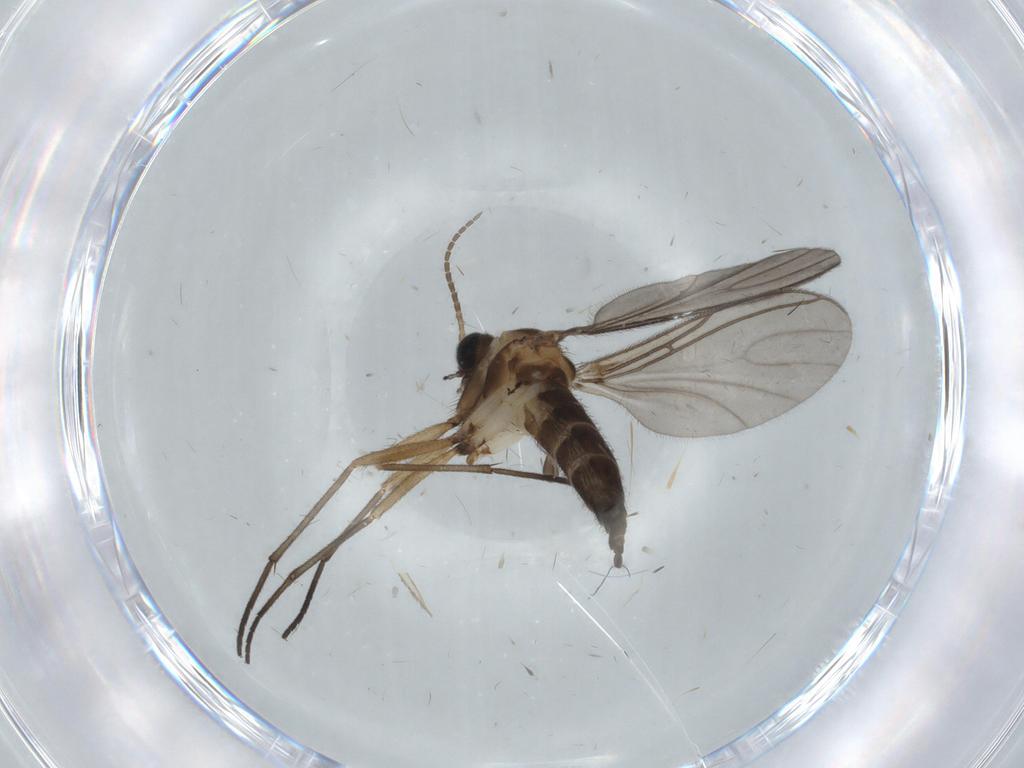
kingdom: Animalia
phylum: Arthropoda
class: Insecta
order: Diptera
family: Sciaridae
